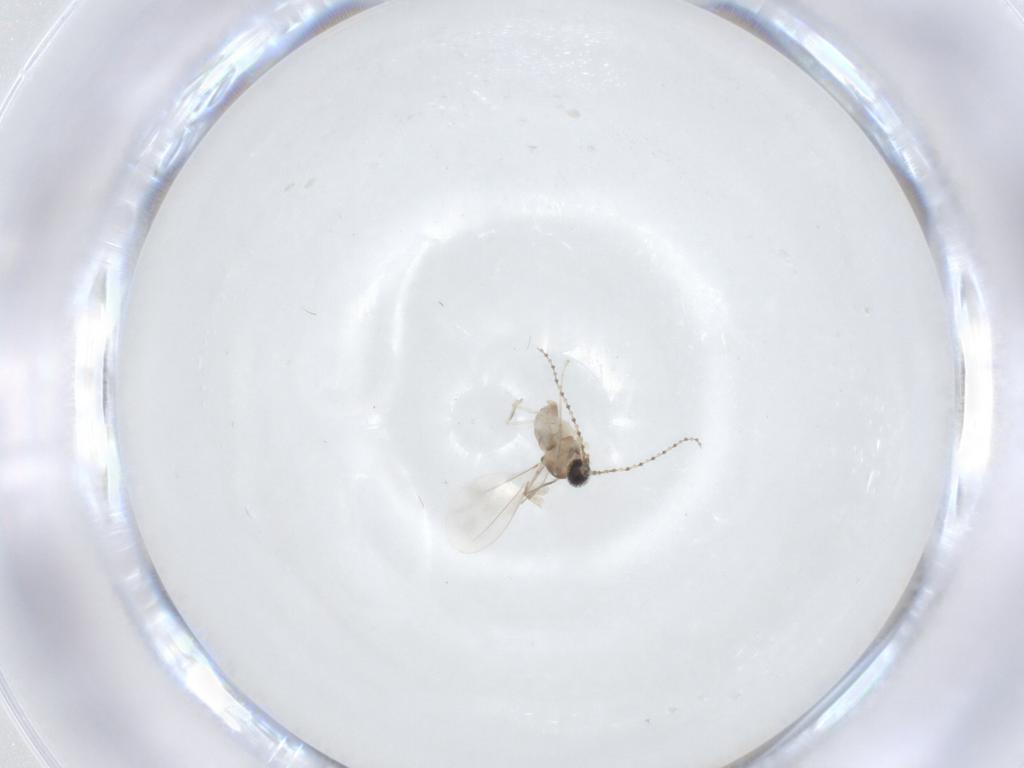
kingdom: Animalia
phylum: Arthropoda
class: Insecta
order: Diptera
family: Cecidomyiidae
